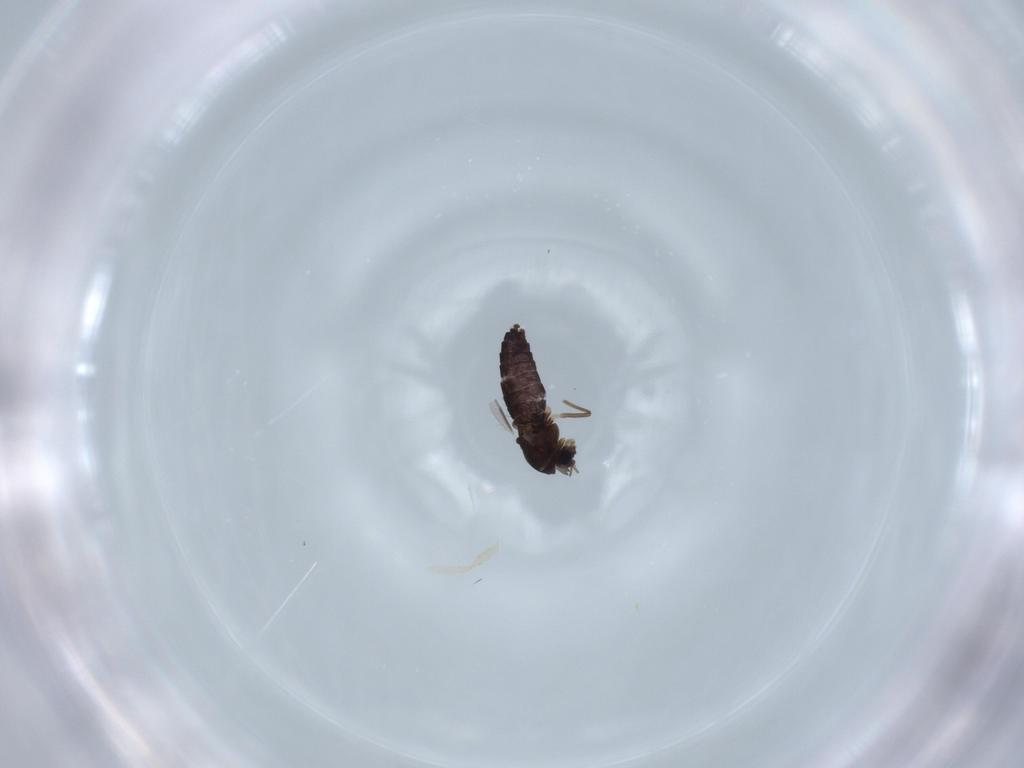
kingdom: Animalia
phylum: Arthropoda
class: Insecta
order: Diptera
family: Chironomidae
